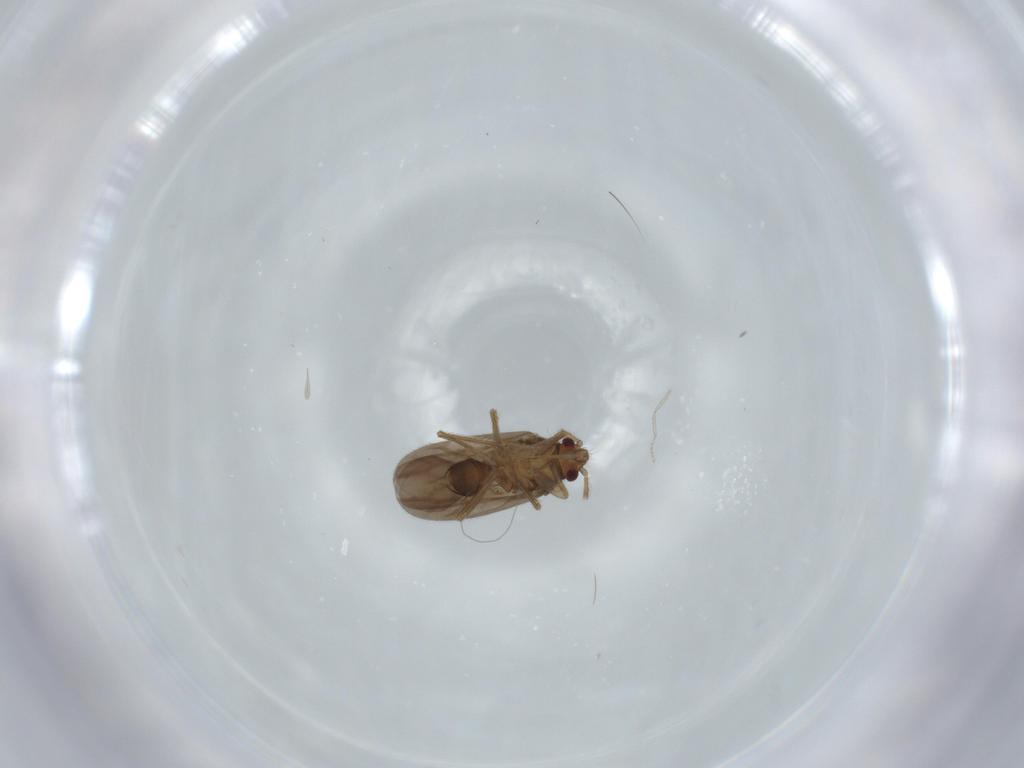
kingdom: Animalia
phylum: Arthropoda
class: Insecta
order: Hemiptera
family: Ceratocombidae
